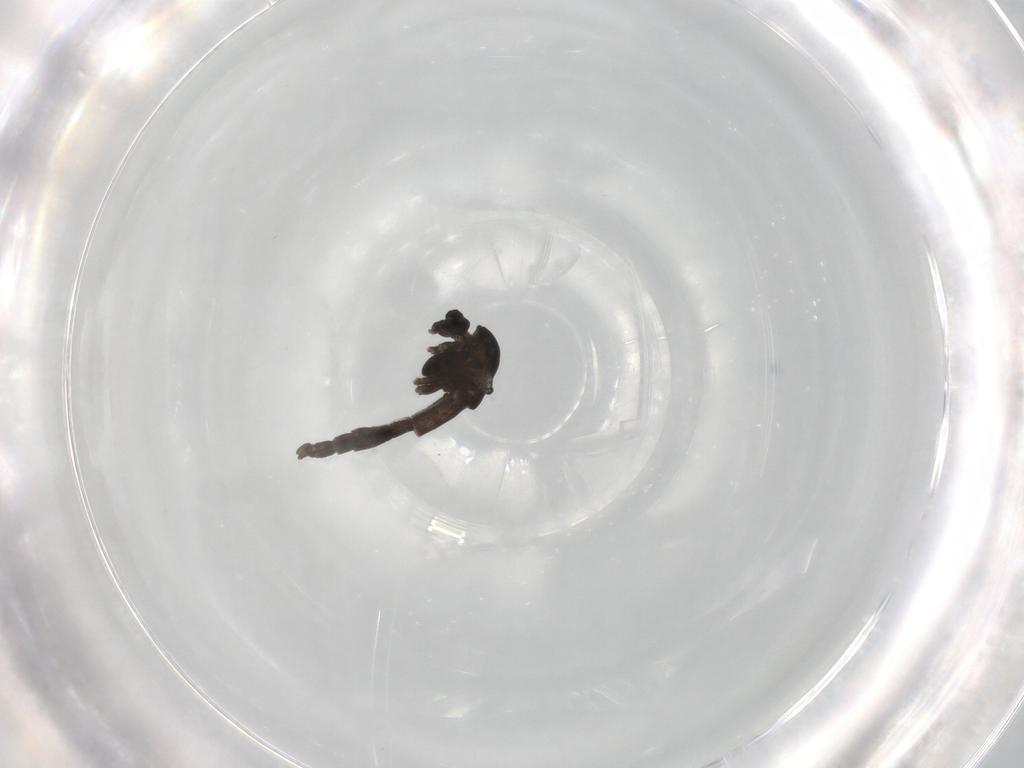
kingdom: Animalia
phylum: Arthropoda
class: Insecta
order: Diptera
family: Chironomidae
